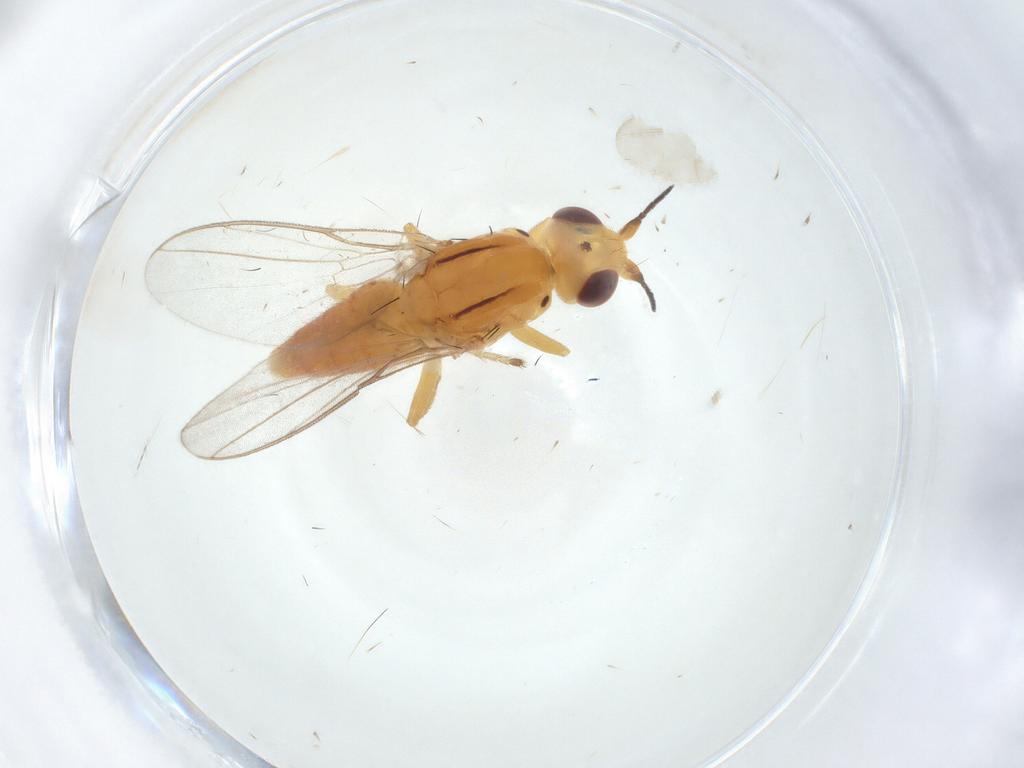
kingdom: Animalia
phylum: Arthropoda
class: Insecta
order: Diptera
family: Chloropidae
